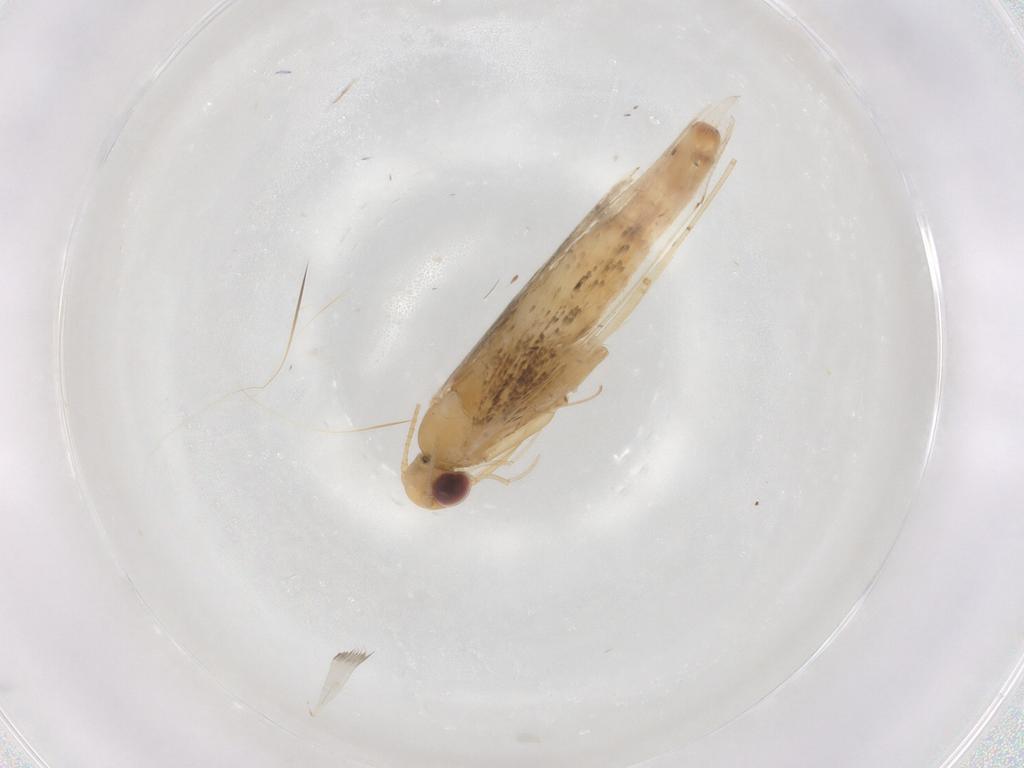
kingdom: Animalia
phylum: Arthropoda
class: Insecta
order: Lepidoptera
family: Gracillariidae
